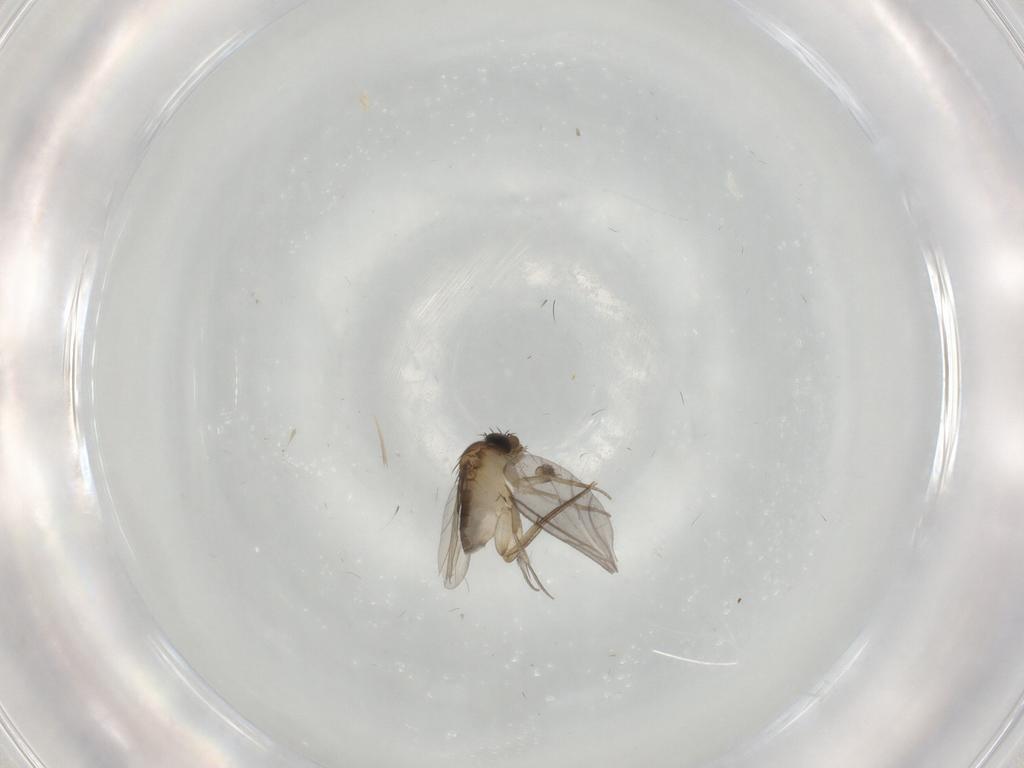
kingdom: Animalia
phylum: Arthropoda
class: Insecta
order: Diptera
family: Phoridae
